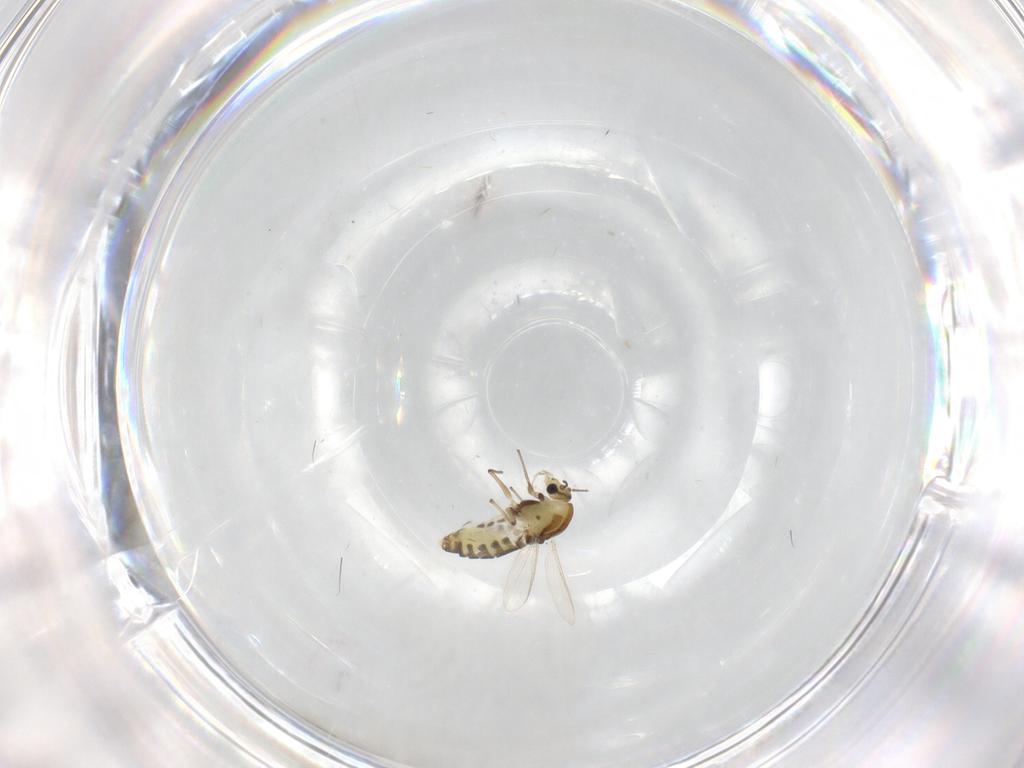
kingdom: Animalia
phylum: Arthropoda
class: Insecta
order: Diptera
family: Chironomidae
